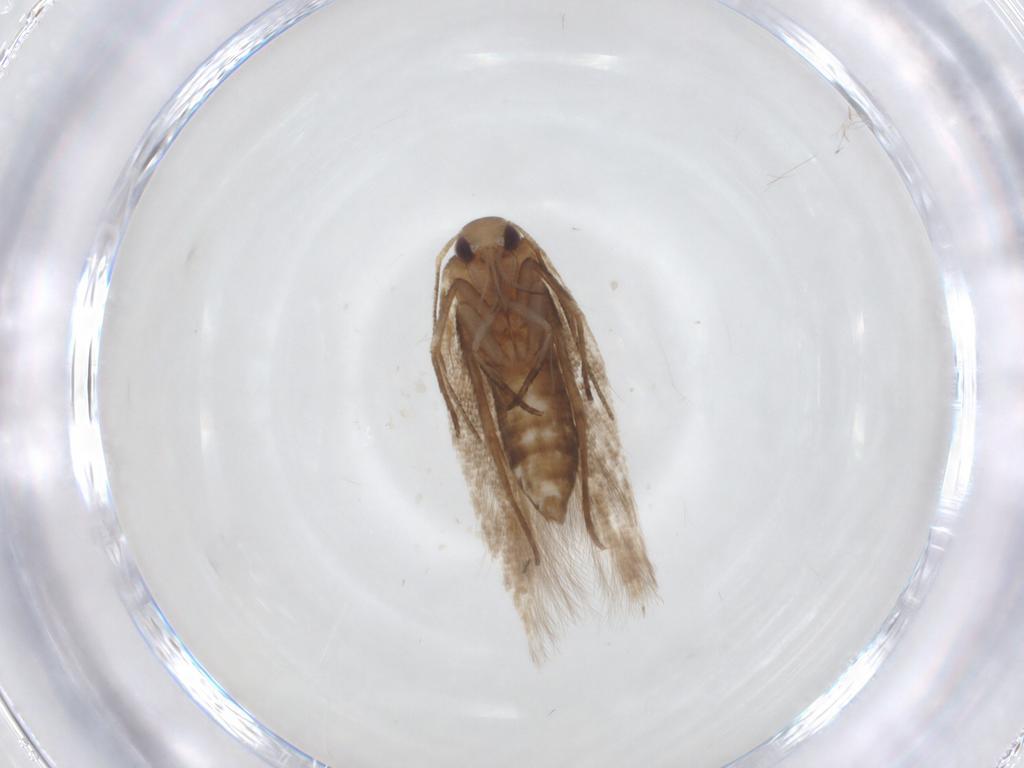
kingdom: Animalia
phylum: Arthropoda
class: Insecta
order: Lepidoptera
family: Cosmopterigidae
